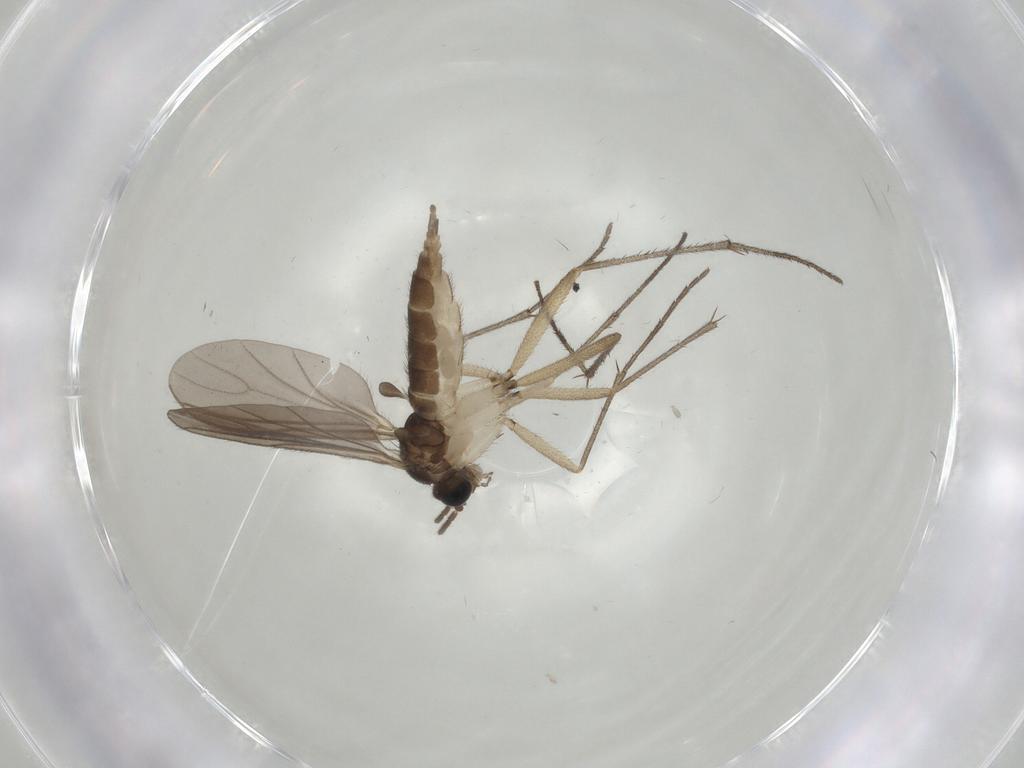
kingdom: Animalia
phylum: Arthropoda
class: Insecta
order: Diptera
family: Sciaridae
